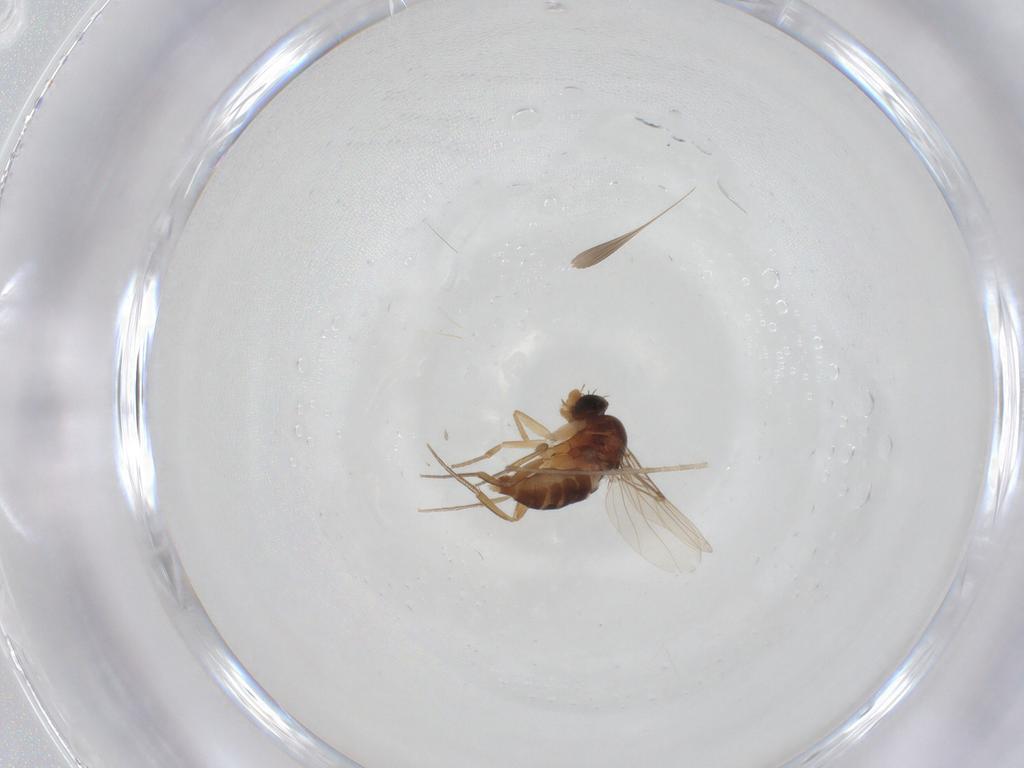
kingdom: Animalia
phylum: Arthropoda
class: Insecta
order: Diptera
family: Phoridae
